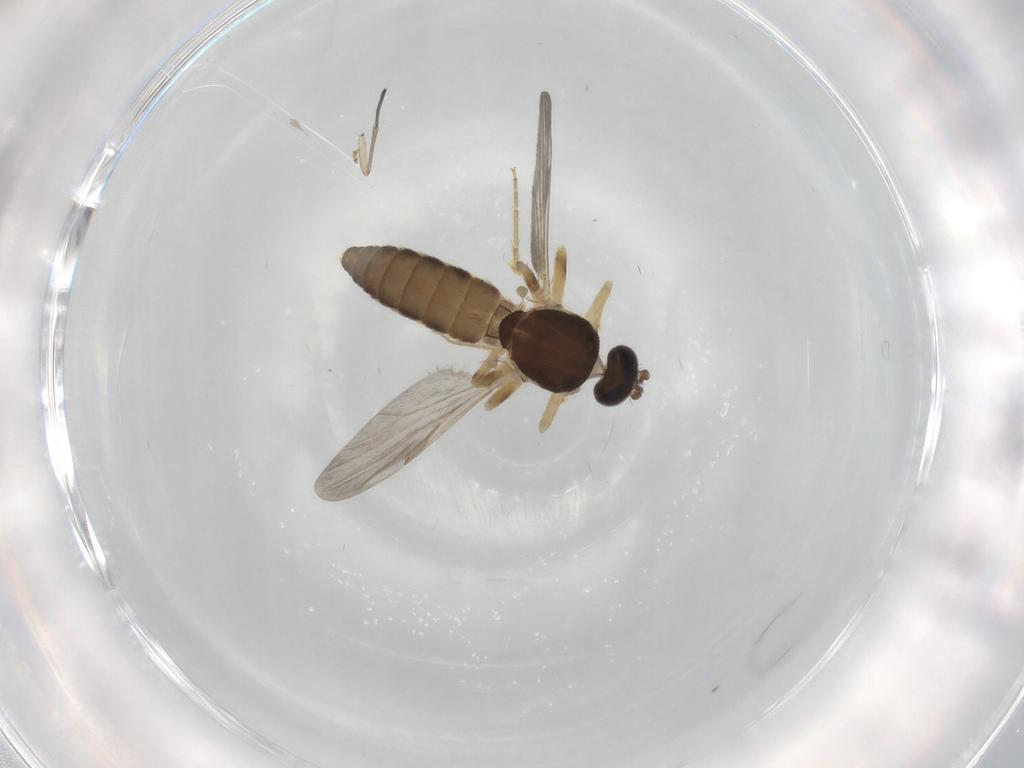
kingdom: Animalia
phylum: Arthropoda
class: Insecta
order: Diptera
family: Ceratopogonidae
